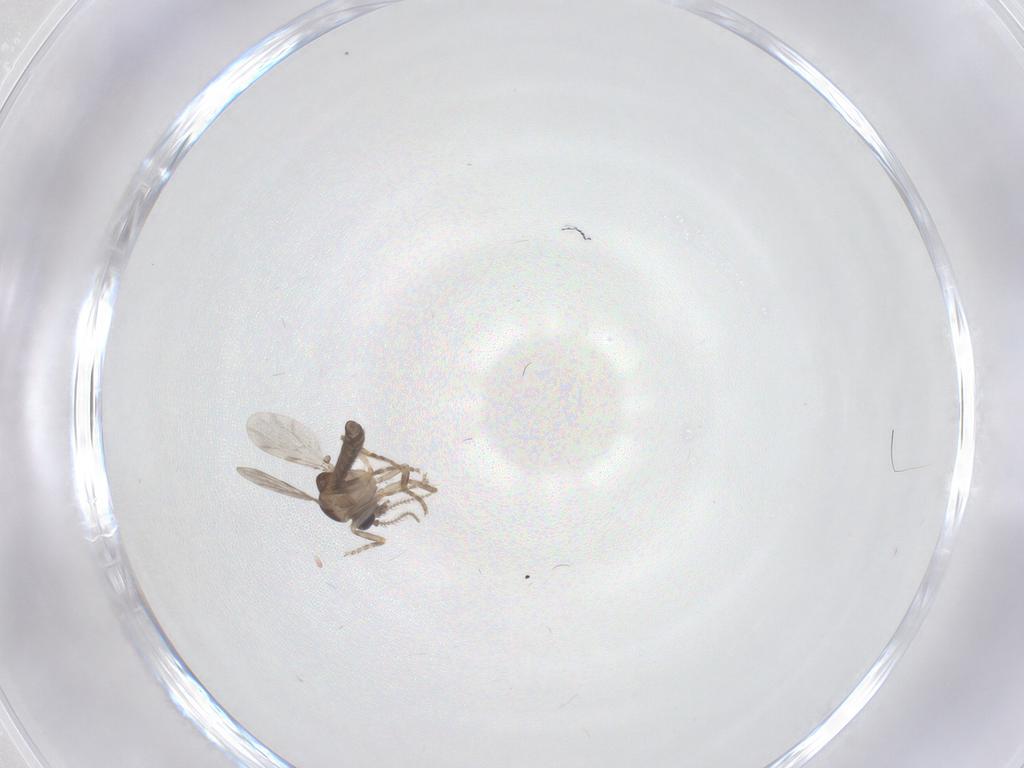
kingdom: Animalia
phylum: Arthropoda
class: Insecta
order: Diptera
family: Ceratopogonidae
